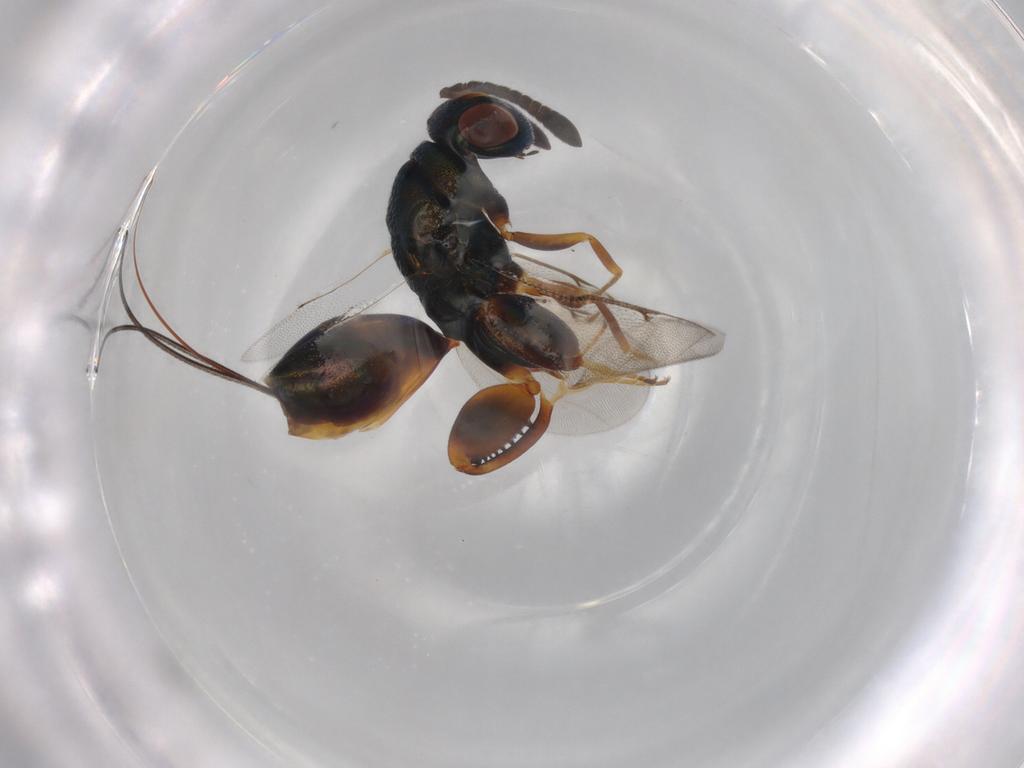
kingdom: Animalia
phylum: Arthropoda
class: Insecta
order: Hymenoptera
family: Torymidae
